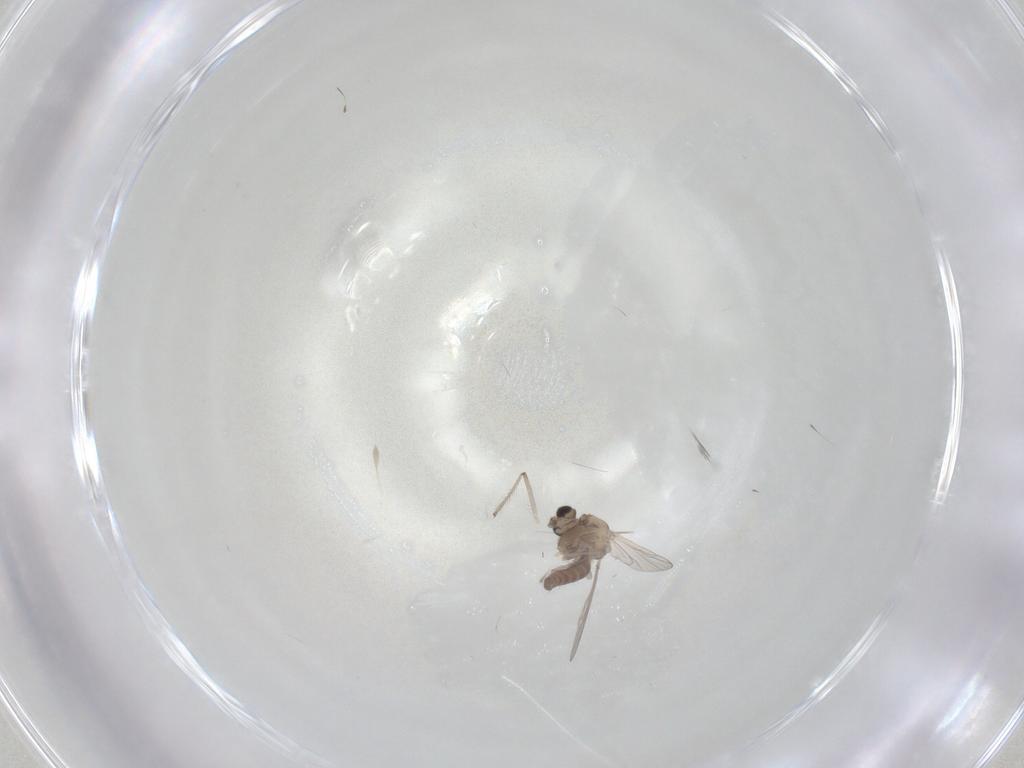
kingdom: Animalia
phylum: Arthropoda
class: Insecta
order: Diptera
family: Chironomidae
